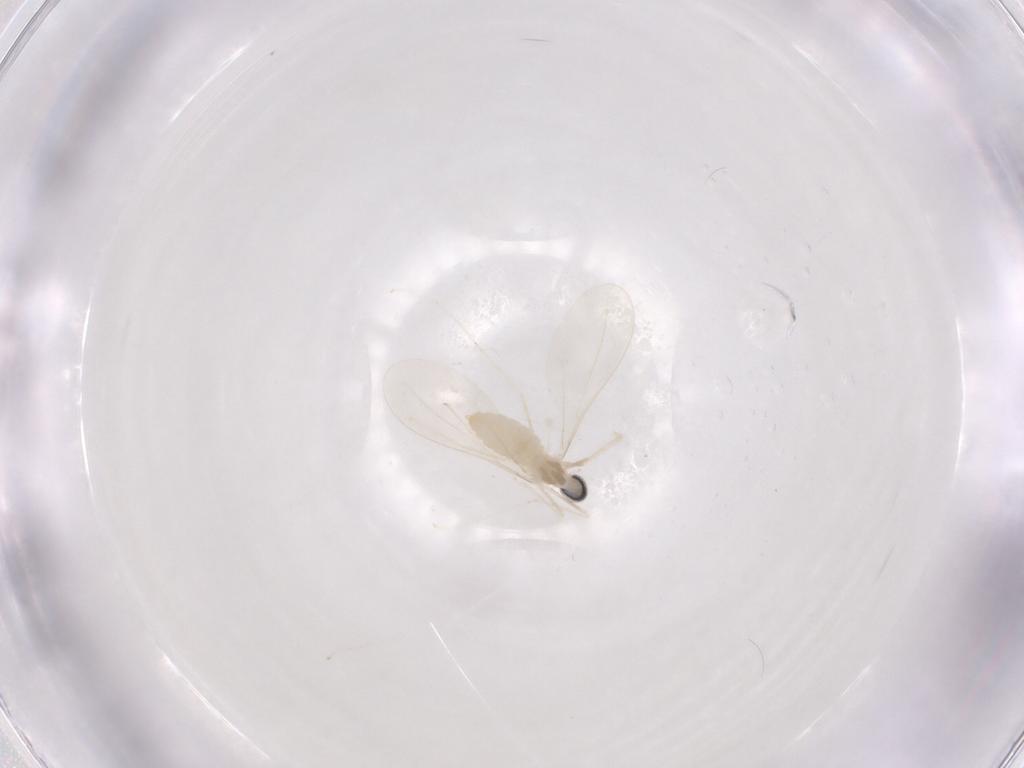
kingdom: Animalia
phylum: Arthropoda
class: Insecta
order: Diptera
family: Cecidomyiidae
